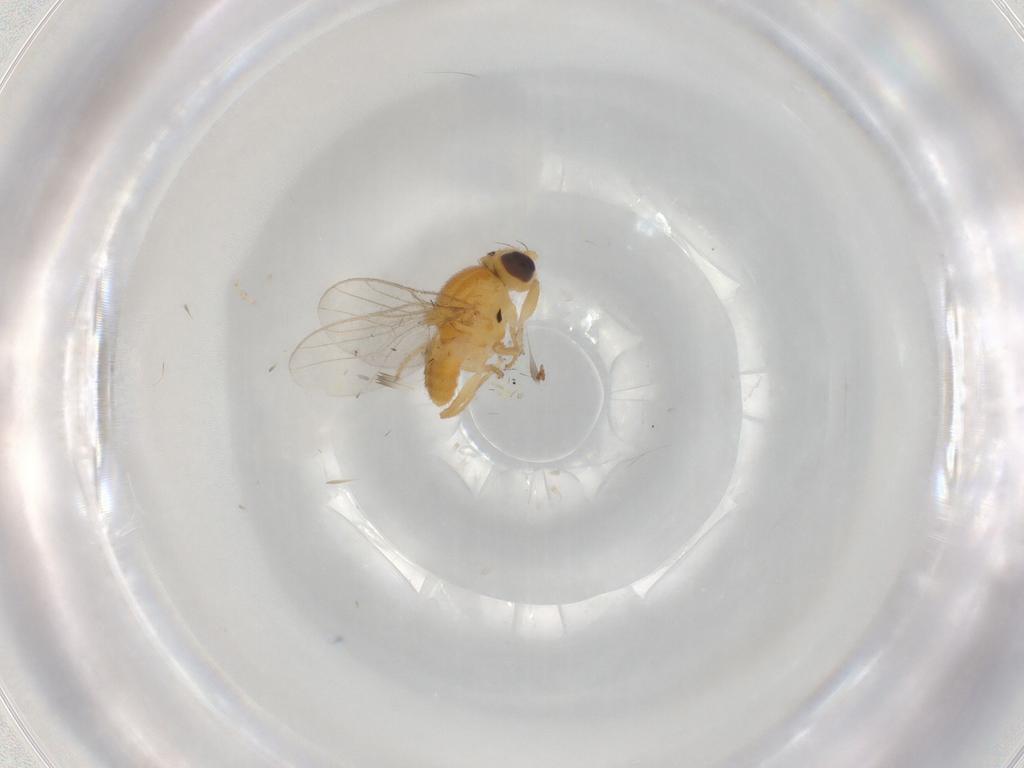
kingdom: Animalia
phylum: Arthropoda
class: Insecta
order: Diptera
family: Chloropidae
